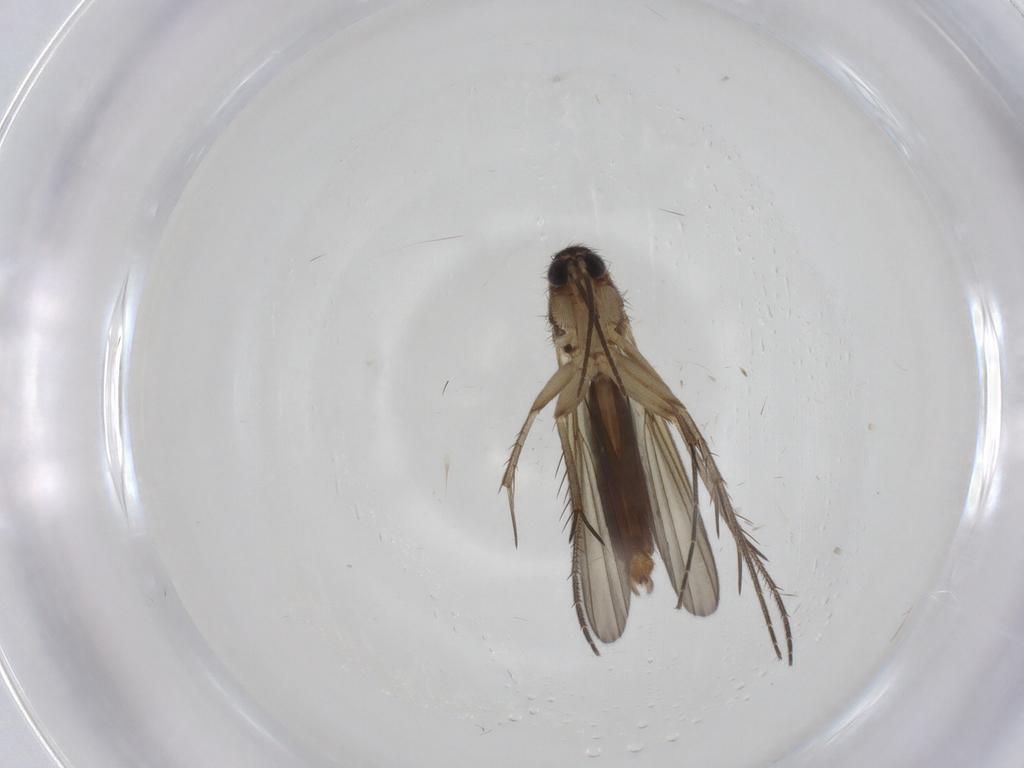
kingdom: Animalia
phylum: Arthropoda
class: Insecta
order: Diptera
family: Mycetophilidae
